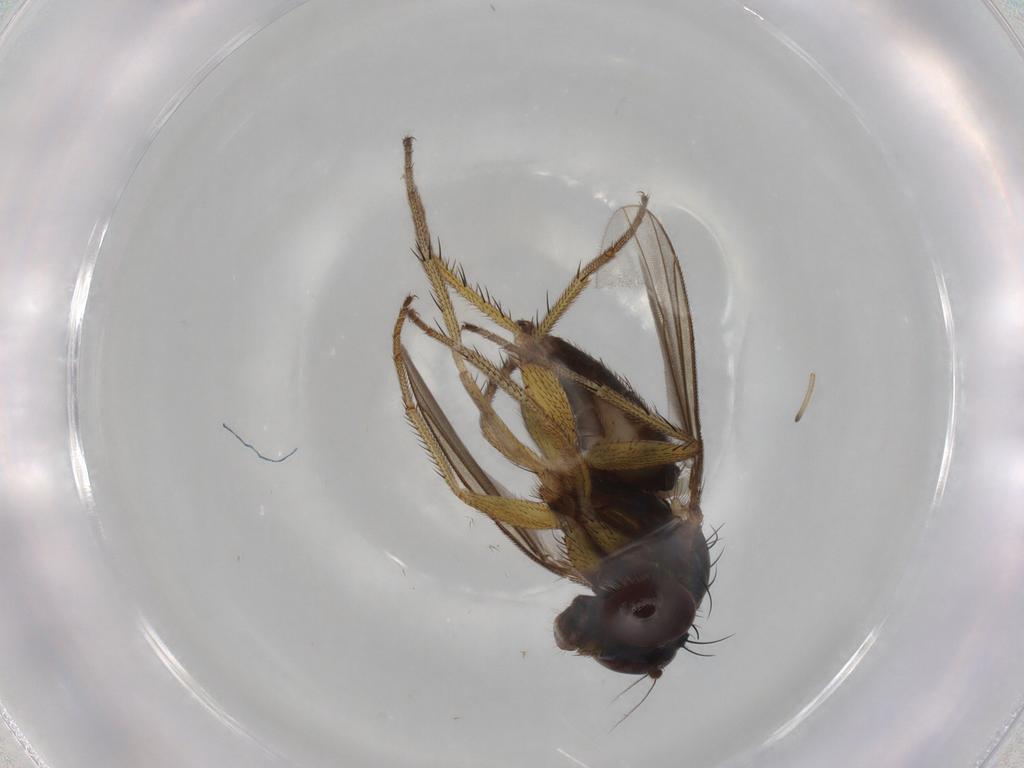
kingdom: Animalia
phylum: Arthropoda
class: Insecta
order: Diptera
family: Dolichopodidae
